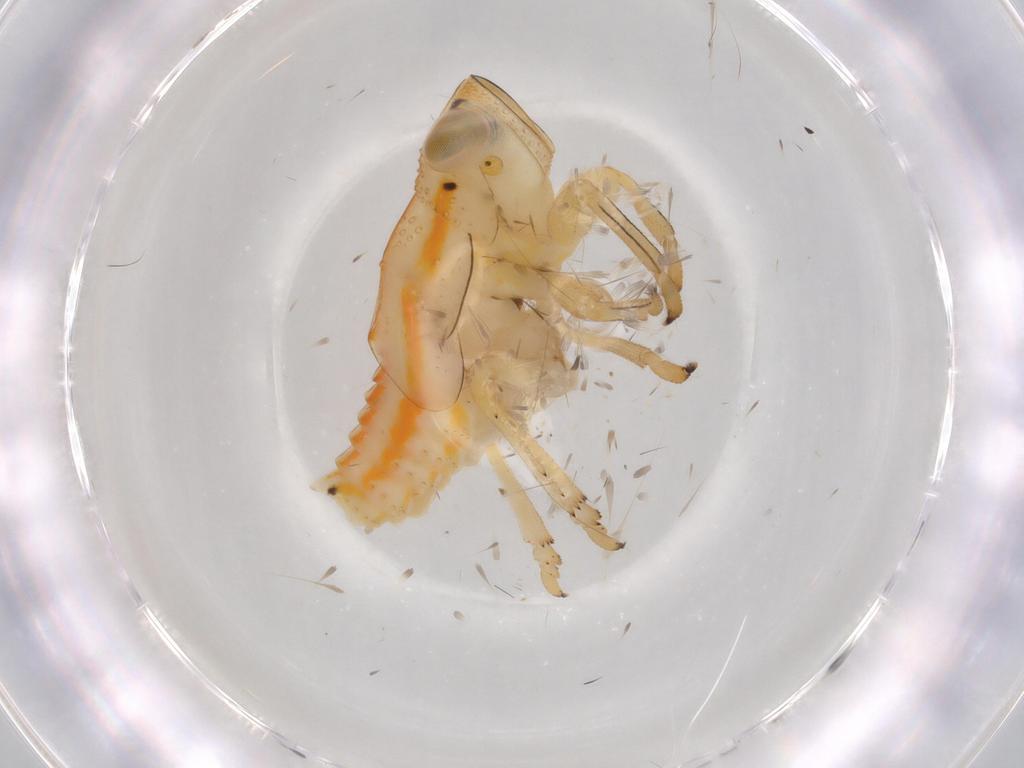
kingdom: Animalia
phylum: Arthropoda
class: Insecta
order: Hemiptera
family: Issidae
